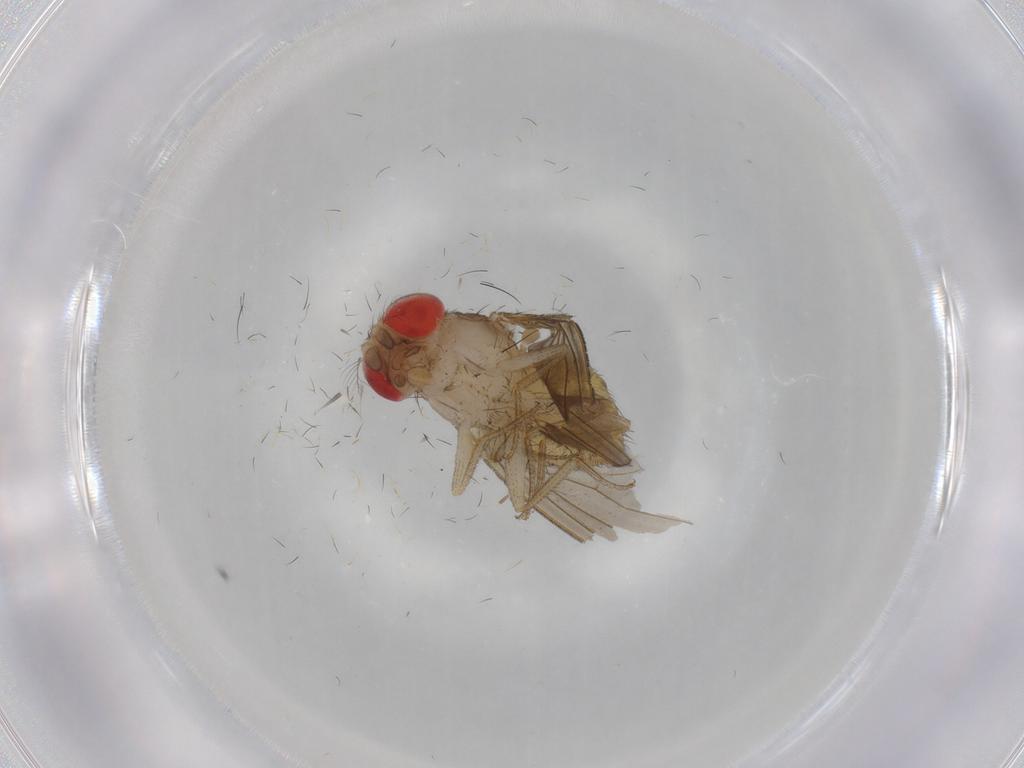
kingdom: Animalia
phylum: Arthropoda
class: Insecta
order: Diptera
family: Drosophilidae
